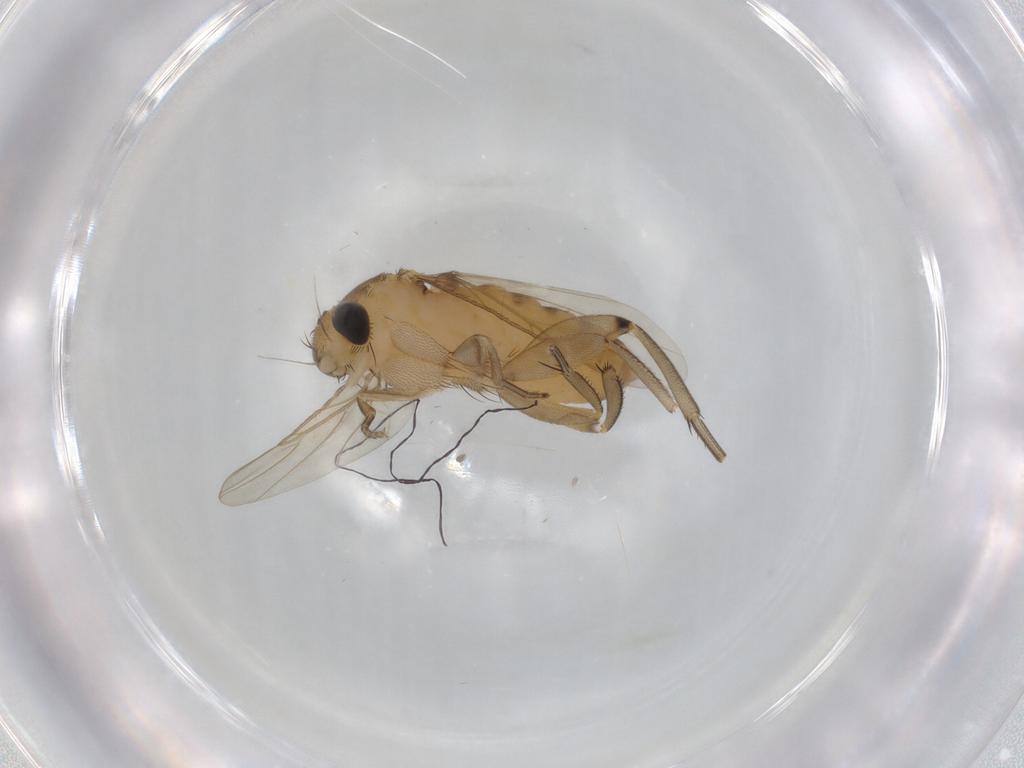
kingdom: Animalia
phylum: Arthropoda
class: Insecta
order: Diptera
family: Phoridae
